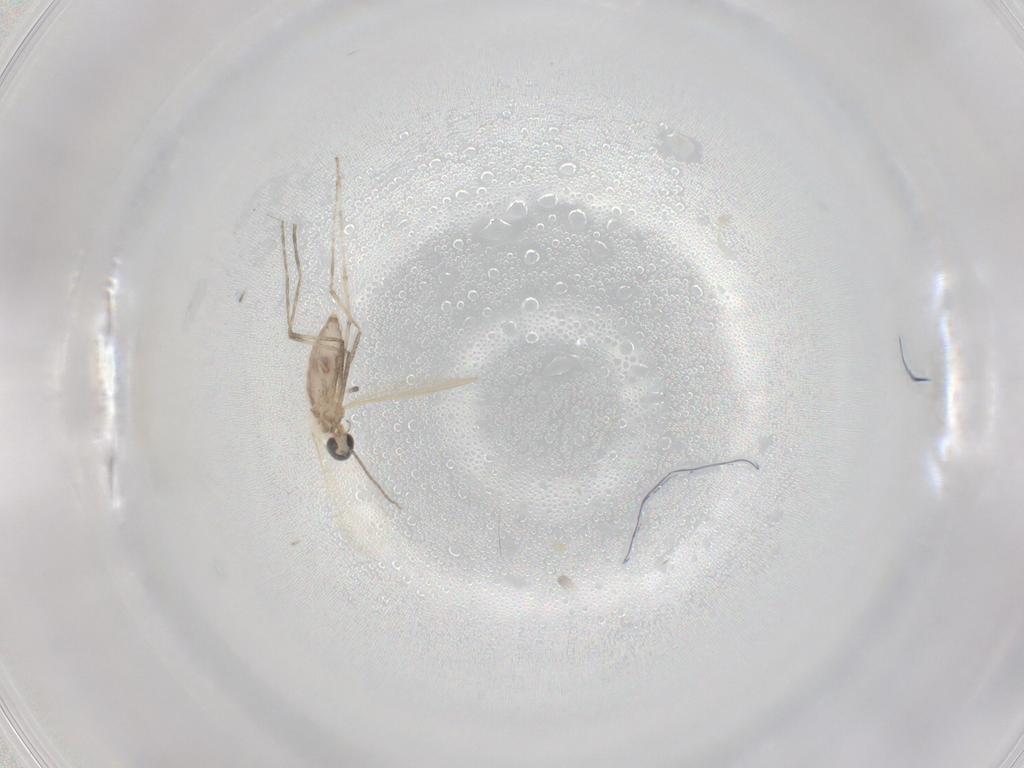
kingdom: Animalia
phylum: Arthropoda
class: Insecta
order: Diptera
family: Cecidomyiidae
